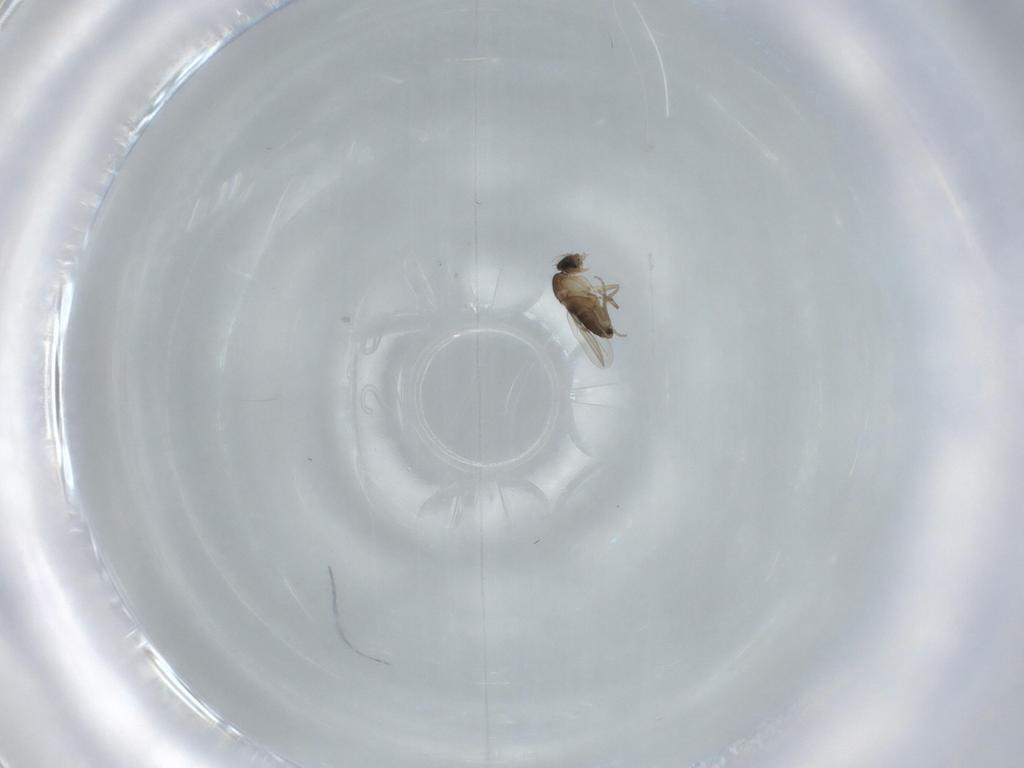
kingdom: Animalia
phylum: Arthropoda
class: Insecta
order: Diptera
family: Phoridae
